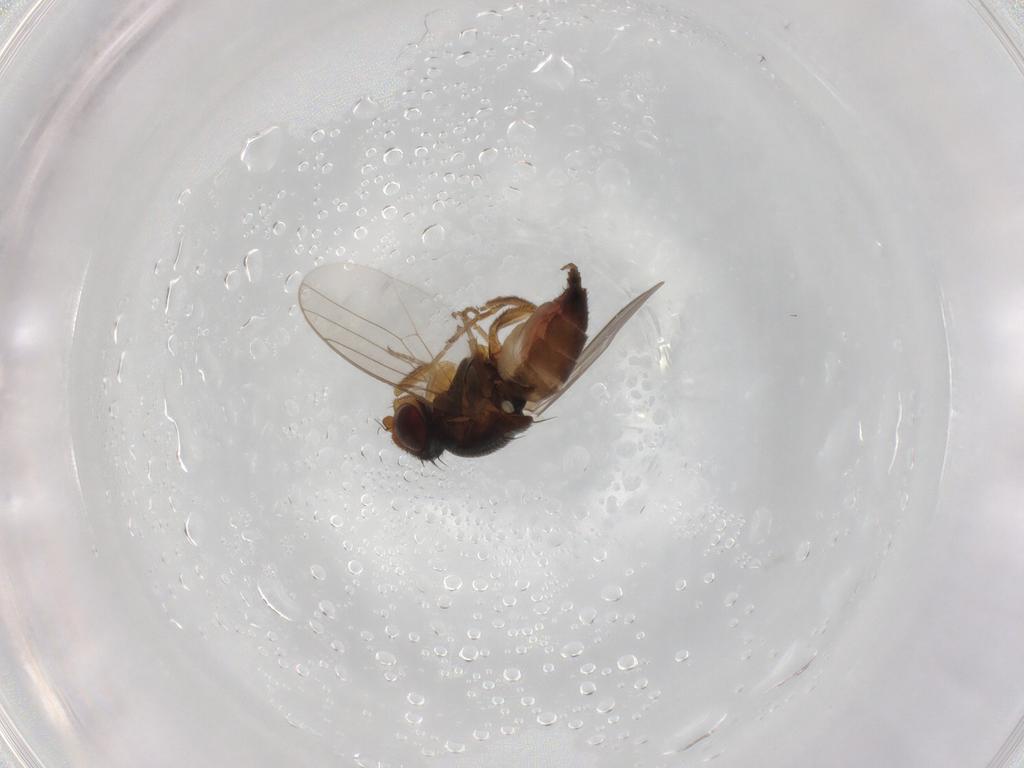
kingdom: Animalia
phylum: Arthropoda
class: Insecta
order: Diptera
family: Chloropidae
